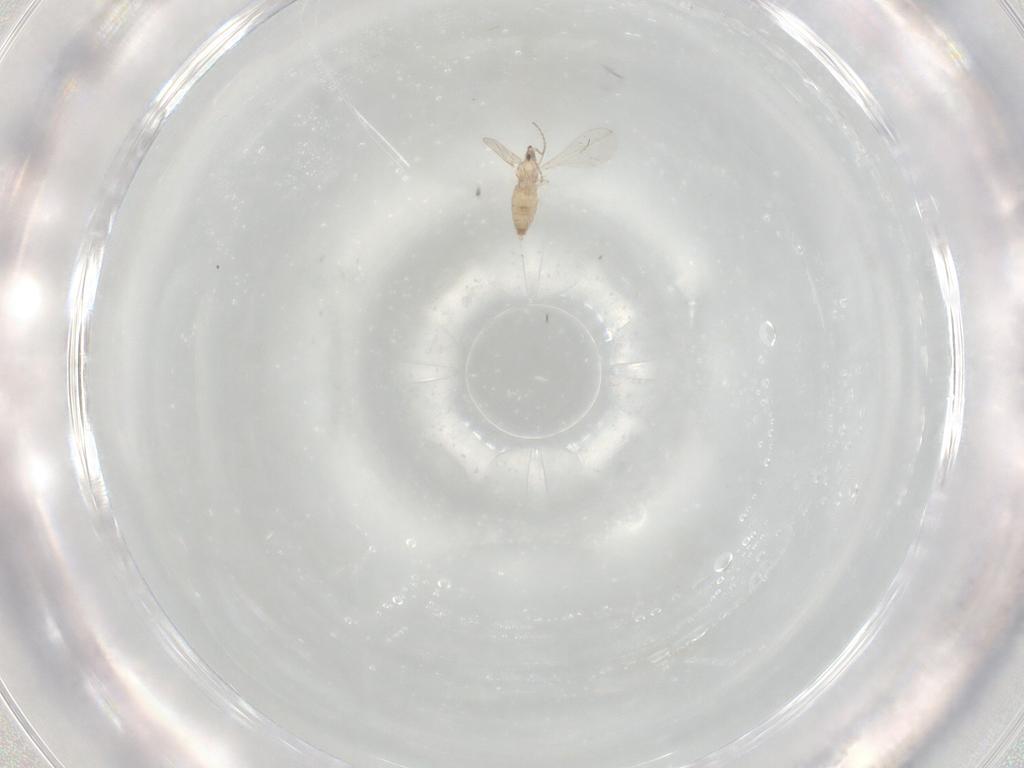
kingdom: Animalia
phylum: Arthropoda
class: Insecta
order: Diptera
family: Cecidomyiidae
